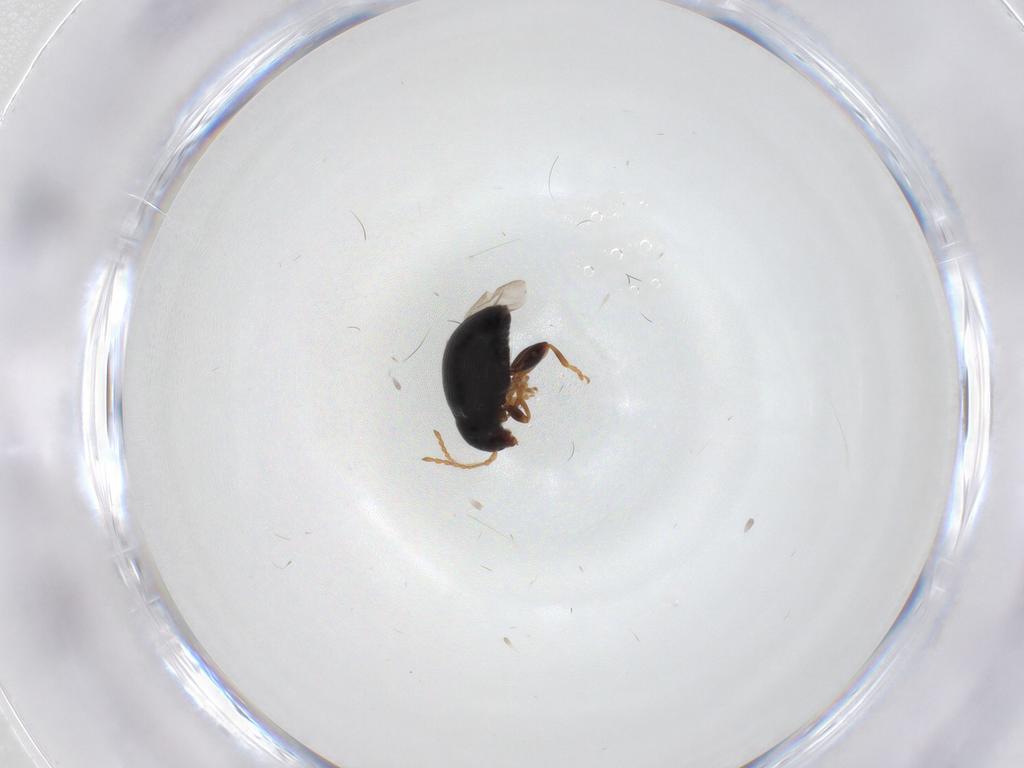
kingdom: Animalia
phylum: Arthropoda
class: Insecta
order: Coleoptera
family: Chrysomelidae
